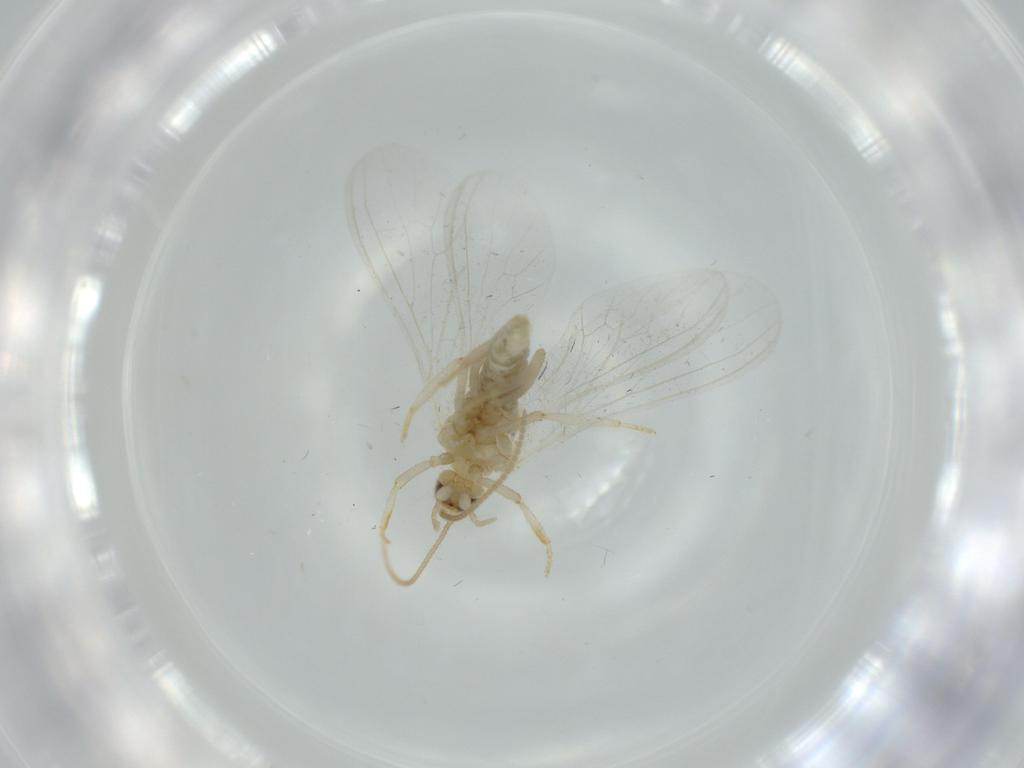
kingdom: Animalia
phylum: Arthropoda
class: Insecta
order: Neuroptera
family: Coniopterygidae
